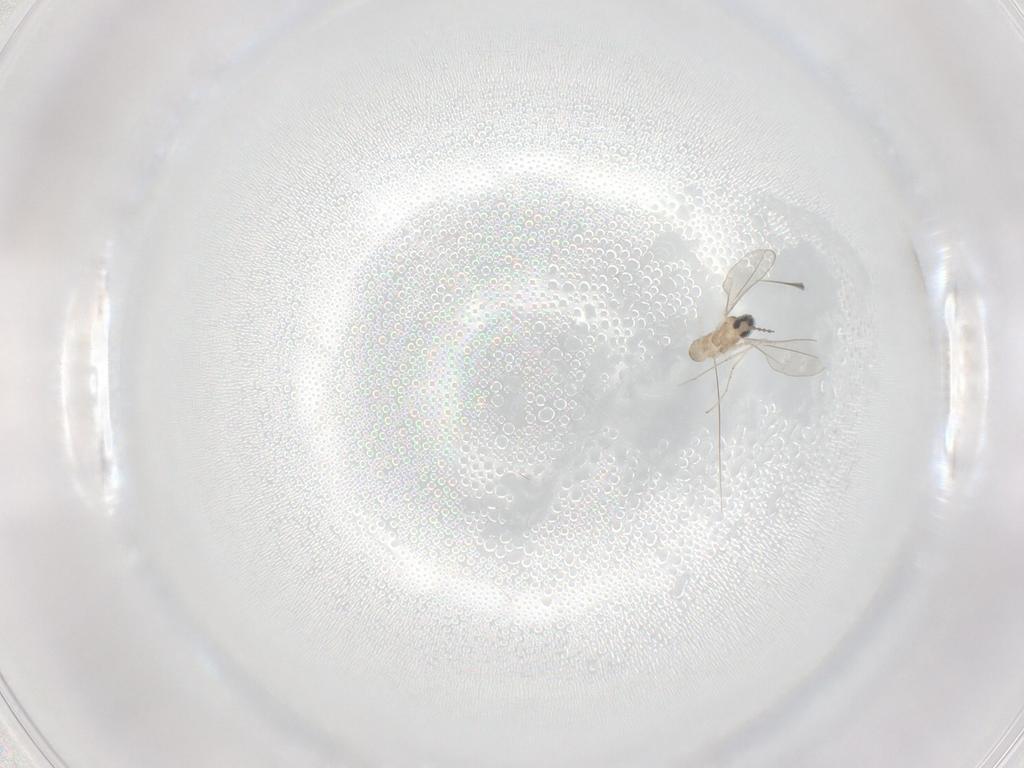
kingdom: Animalia
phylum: Arthropoda
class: Insecta
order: Diptera
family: Cecidomyiidae
